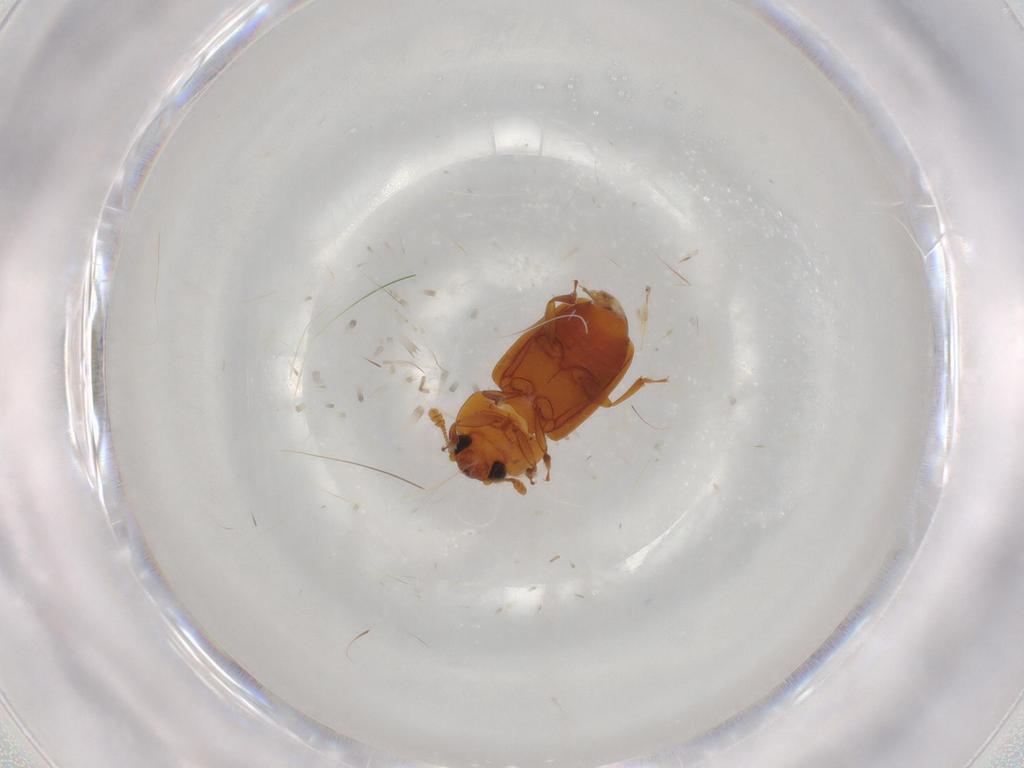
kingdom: Animalia
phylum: Arthropoda
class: Insecta
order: Coleoptera
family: Nitidulidae
